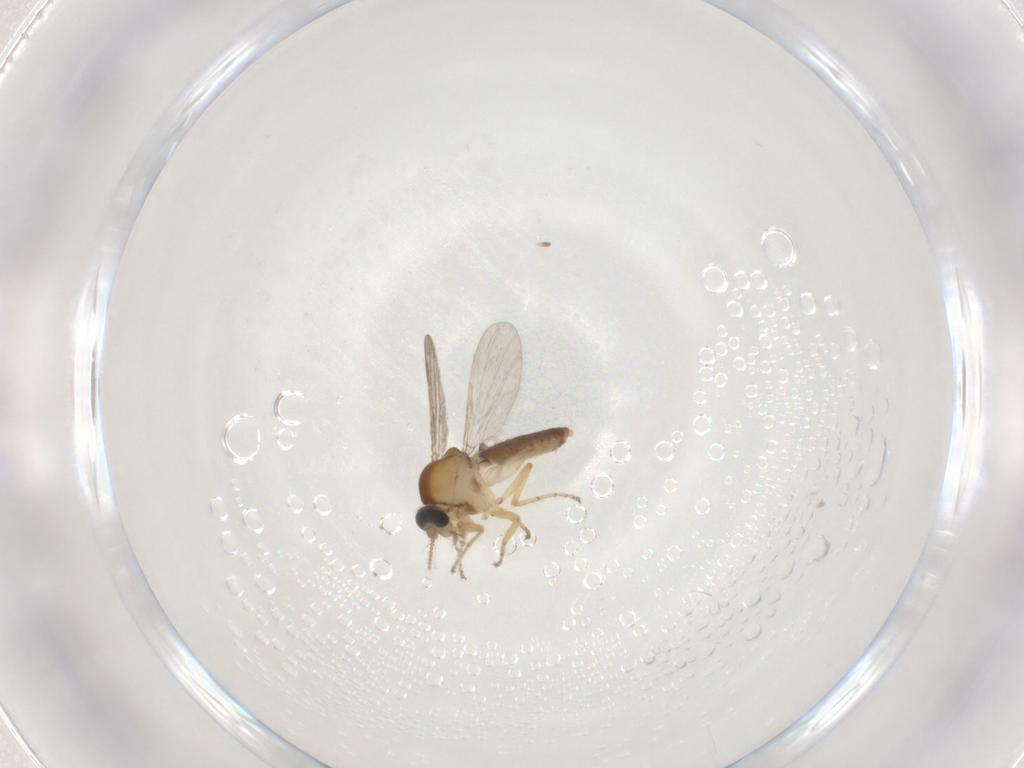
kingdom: Animalia
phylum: Arthropoda
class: Insecta
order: Diptera
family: Ceratopogonidae
